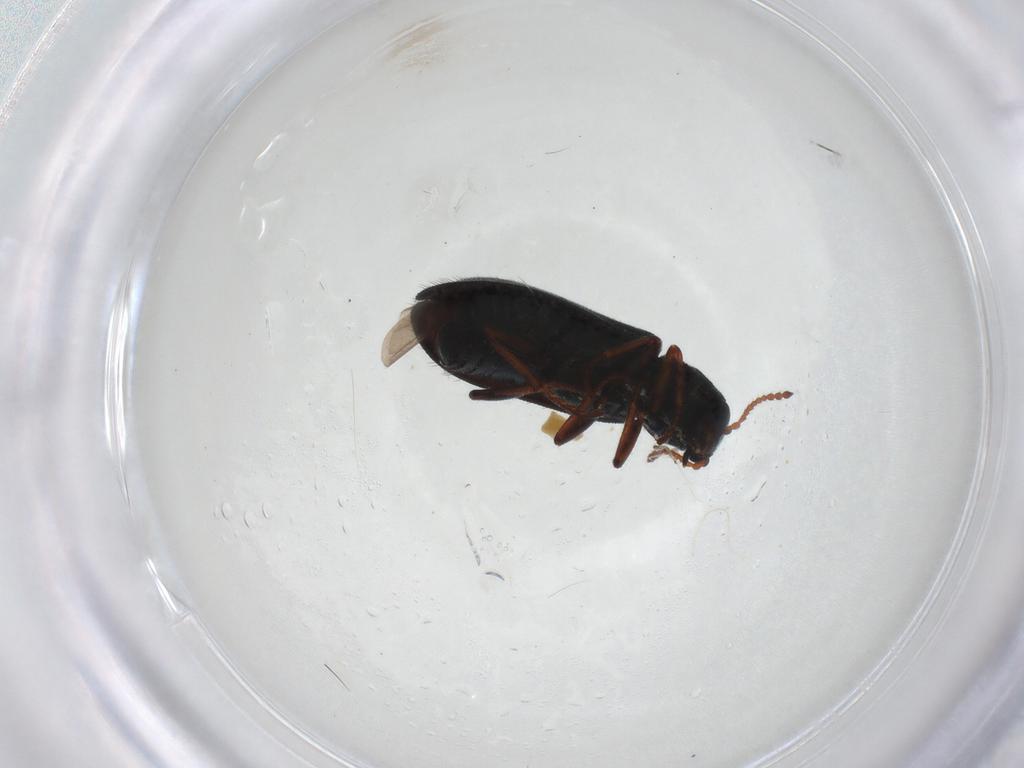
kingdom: Animalia
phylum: Arthropoda
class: Insecta
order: Coleoptera
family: Melyridae
